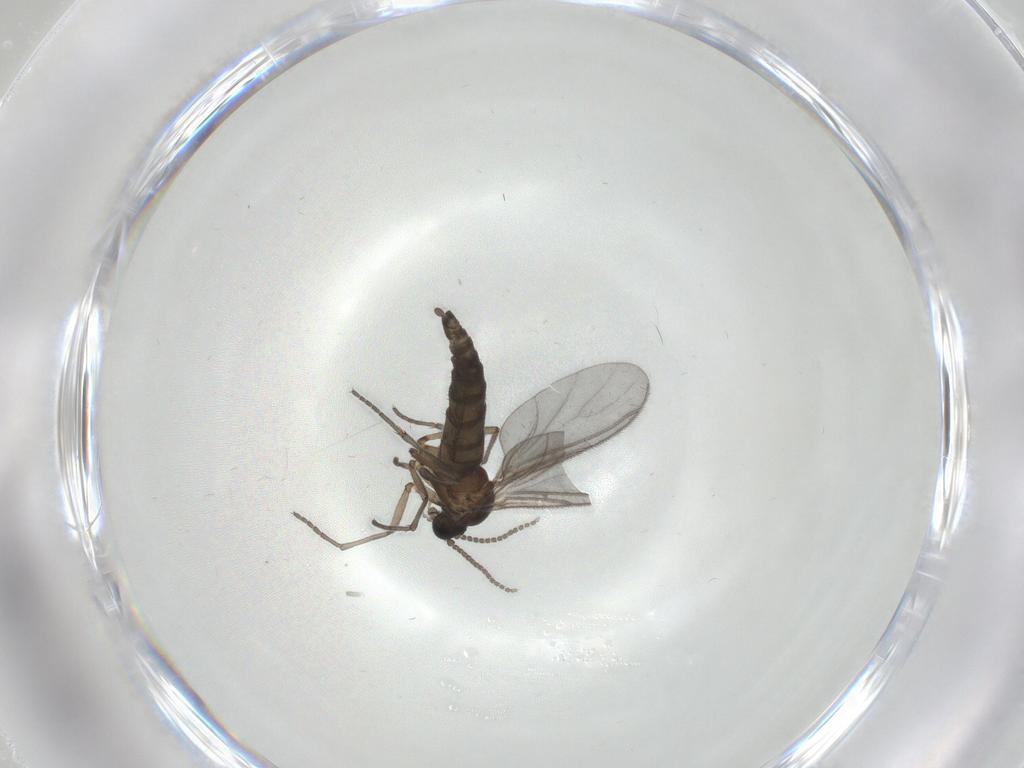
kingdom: Animalia
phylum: Arthropoda
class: Insecta
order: Diptera
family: Sciaridae
